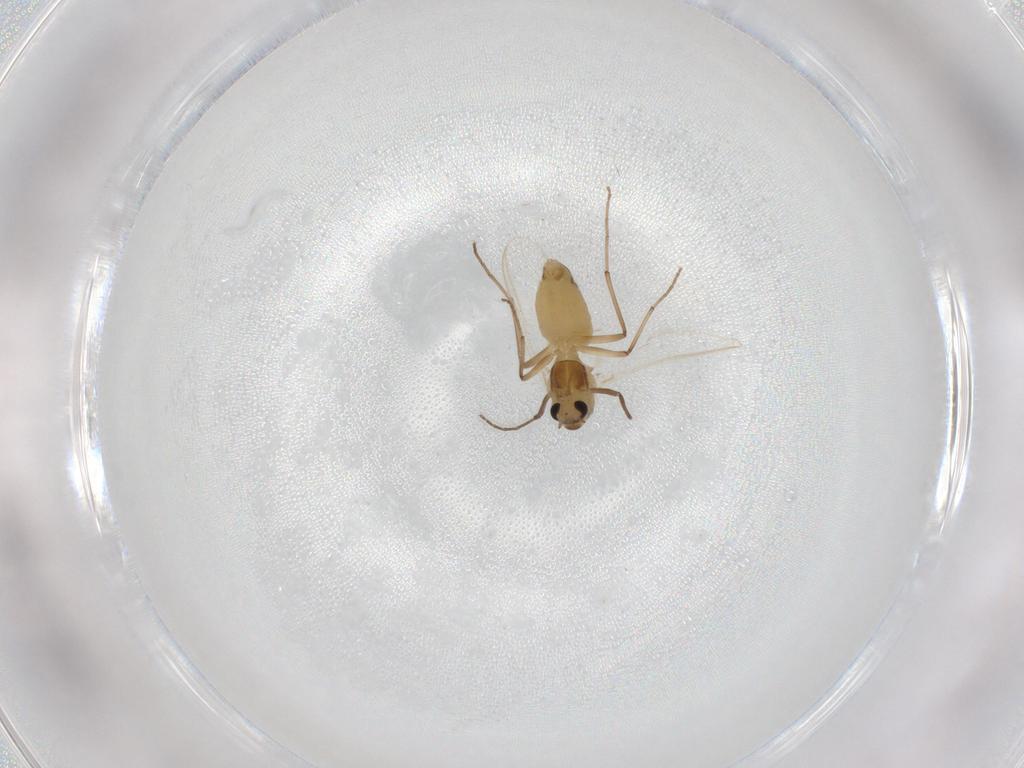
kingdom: Animalia
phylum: Arthropoda
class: Insecta
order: Diptera
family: Chironomidae
